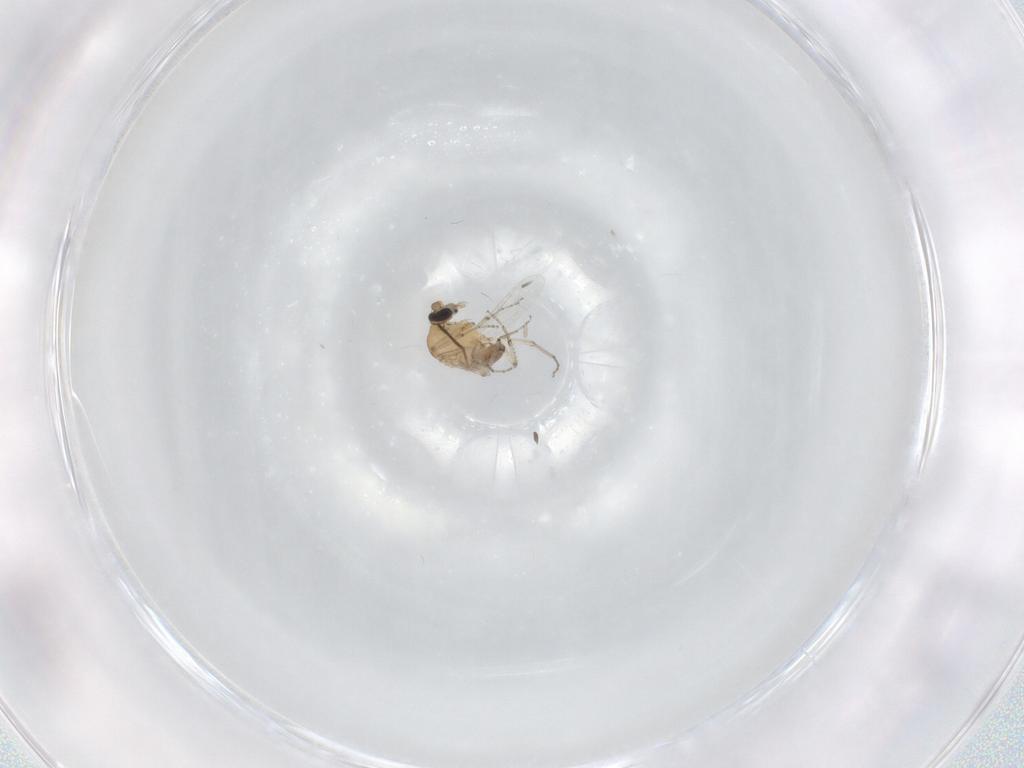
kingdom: Animalia
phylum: Arthropoda
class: Insecta
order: Diptera
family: Ceratopogonidae
